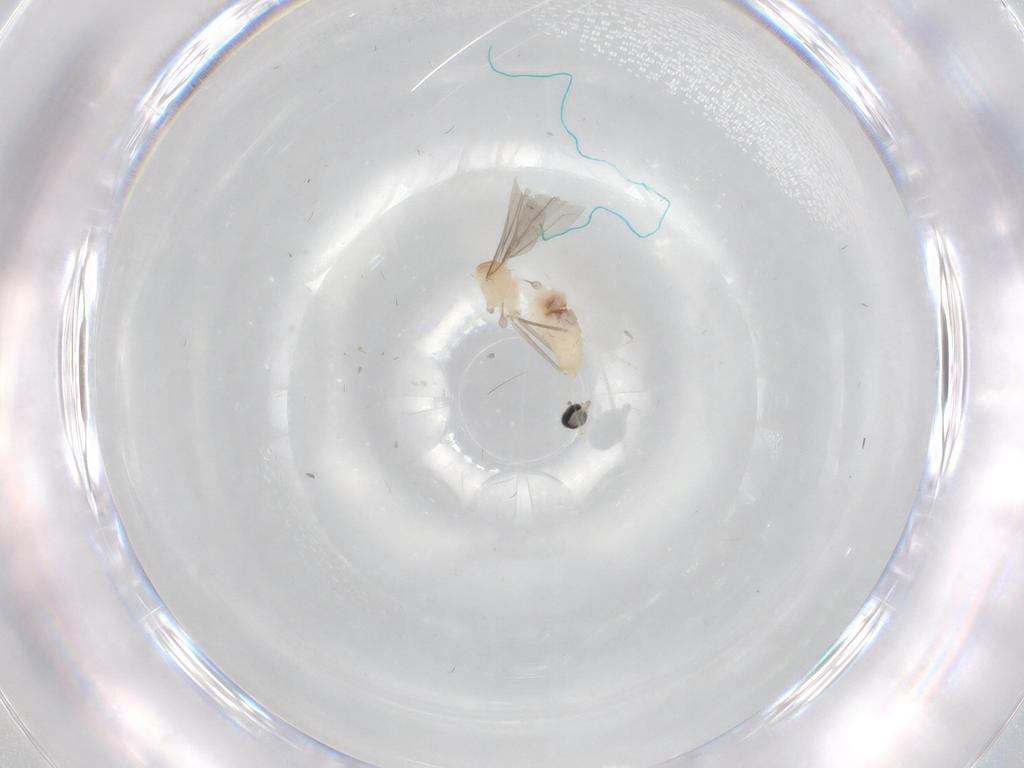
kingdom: Animalia
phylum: Arthropoda
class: Insecta
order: Diptera
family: Cecidomyiidae
